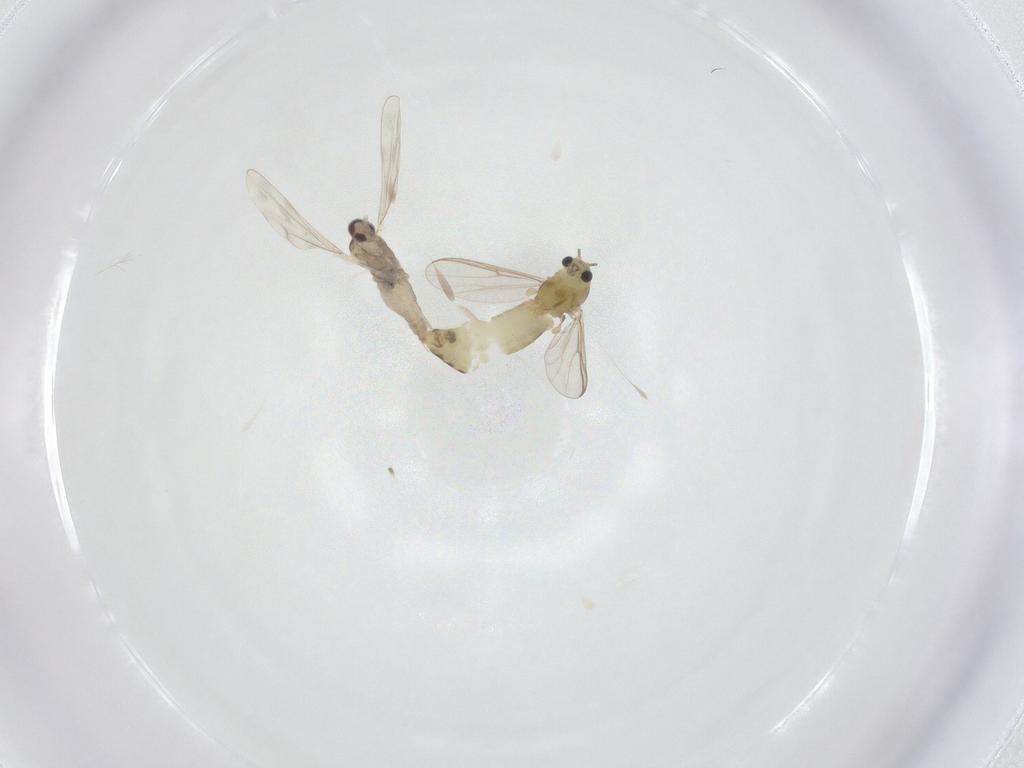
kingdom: Animalia
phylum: Arthropoda
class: Insecta
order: Diptera
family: Cecidomyiidae
